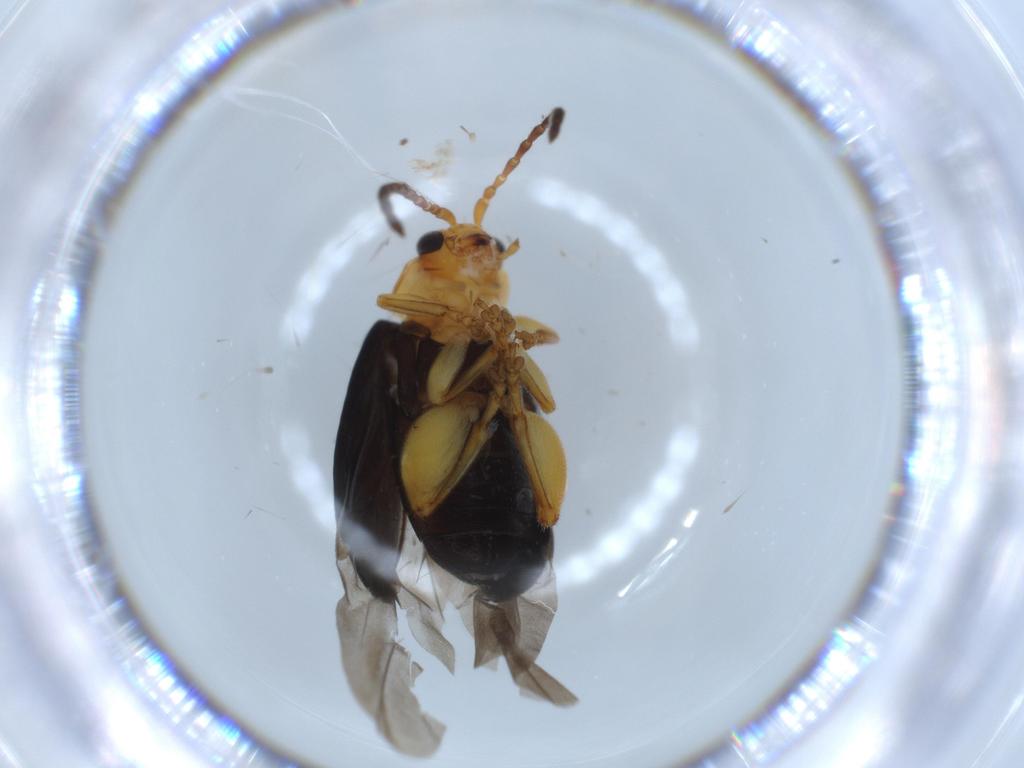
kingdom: Animalia
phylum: Arthropoda
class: Insecta
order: Coleoptera
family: Chrysomelidae
